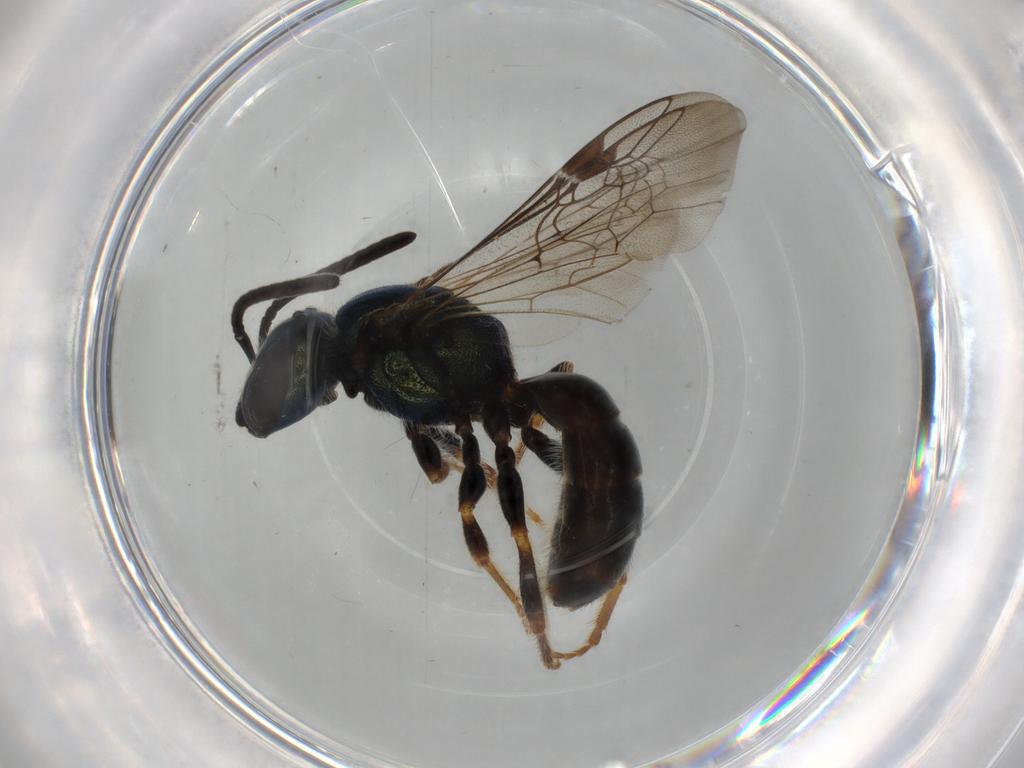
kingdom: Animalia
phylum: Arthropoda
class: Insecta
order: Hymenoptera
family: Halictidae
